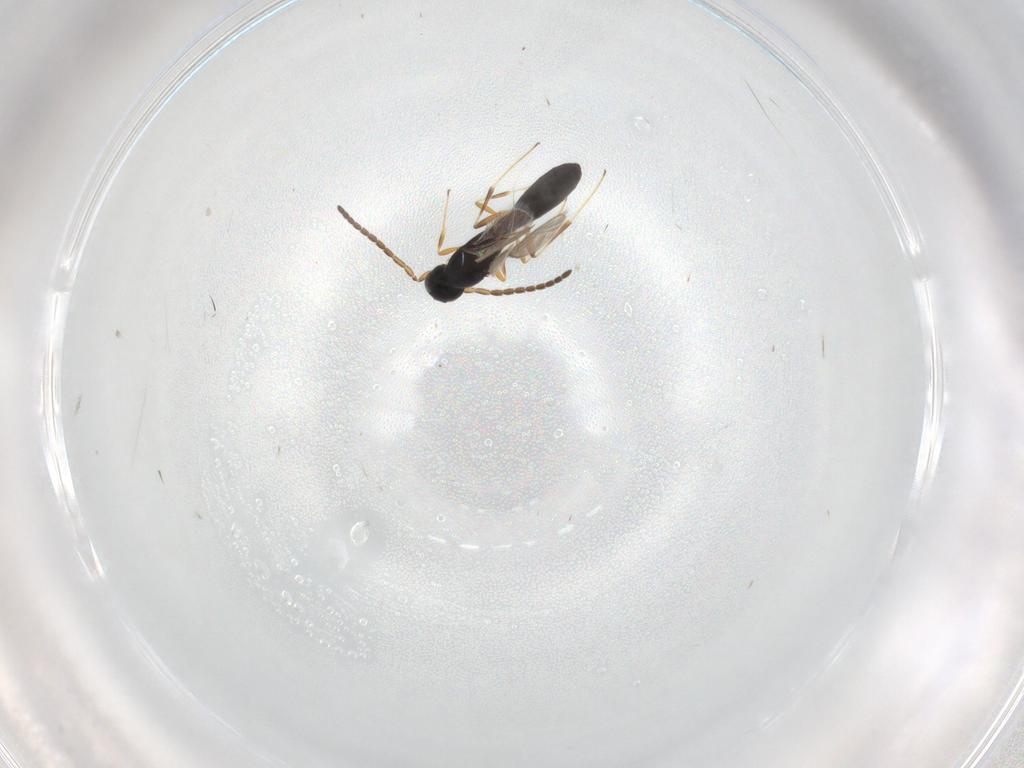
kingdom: Animalia
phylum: Arthropoda
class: Insecta
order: Hymenoptera
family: Scelionidae
